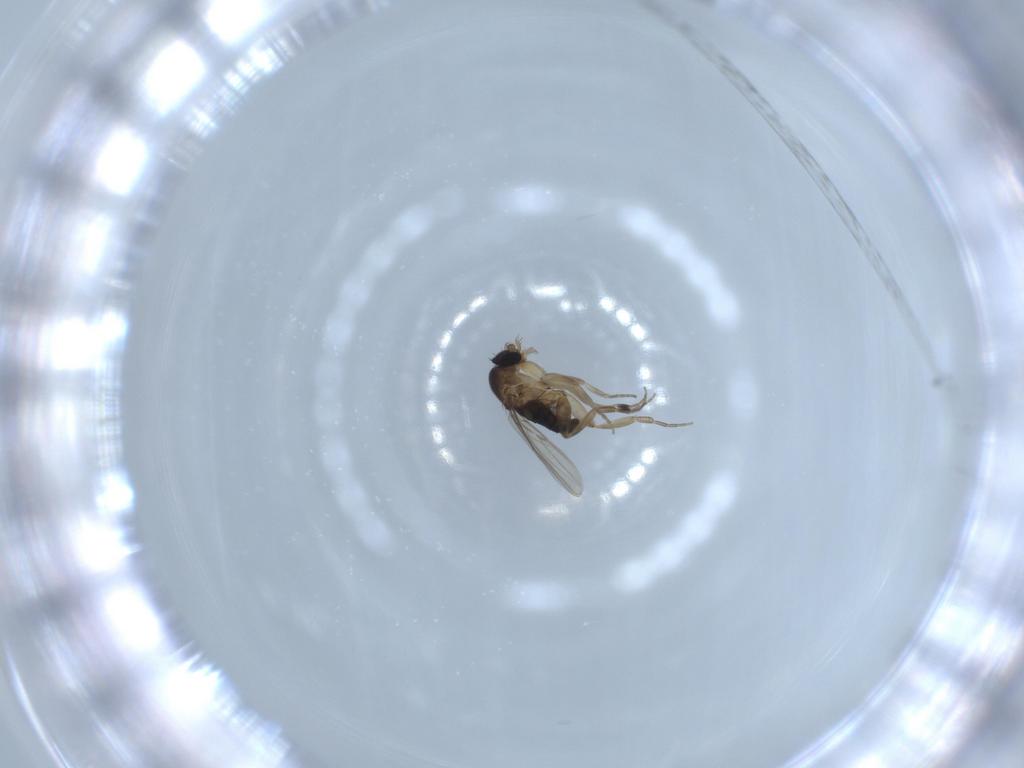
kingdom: Animalia
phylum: Arthropoda
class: Insecta
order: Diptera
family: Phoridae
